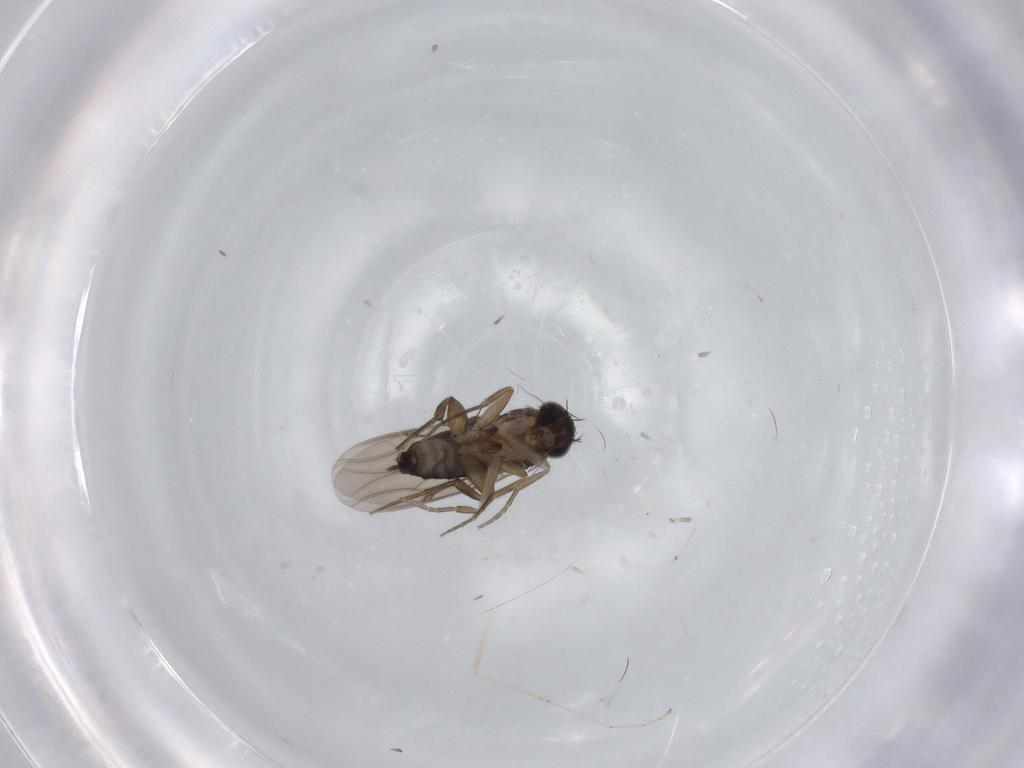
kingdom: Animalia
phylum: Arthropoda
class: Insecta
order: Diptera
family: Phoridae
